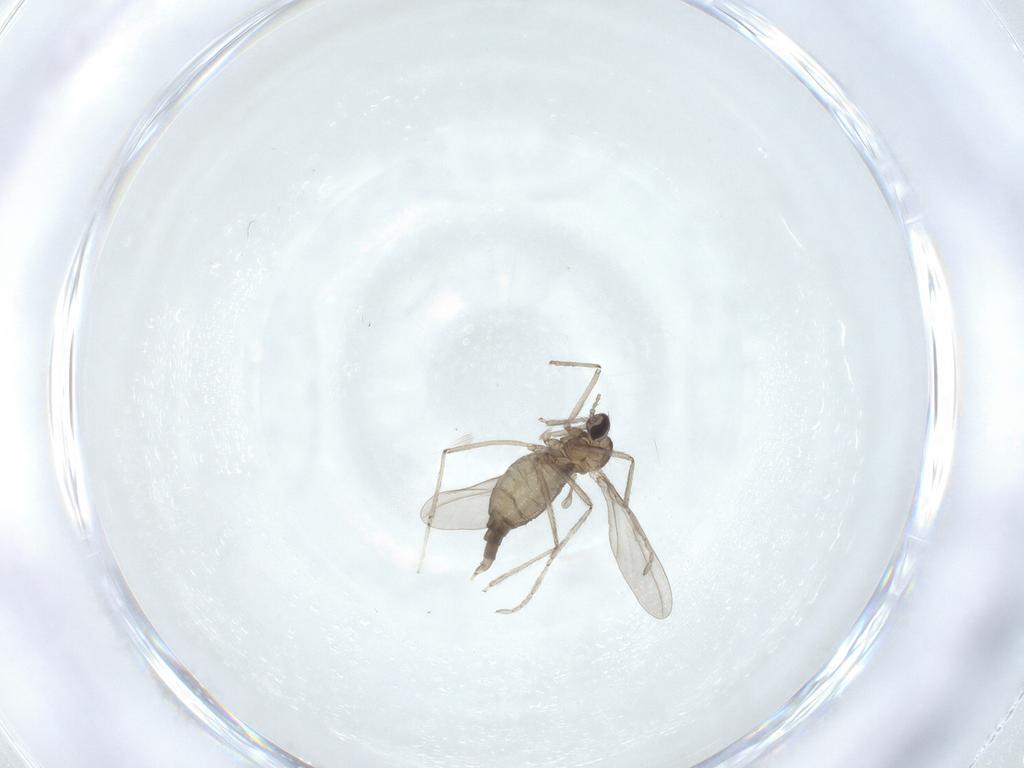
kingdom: Animalia
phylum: Arthropoda
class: Insecta
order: Diptera
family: Cecidomyiidae
